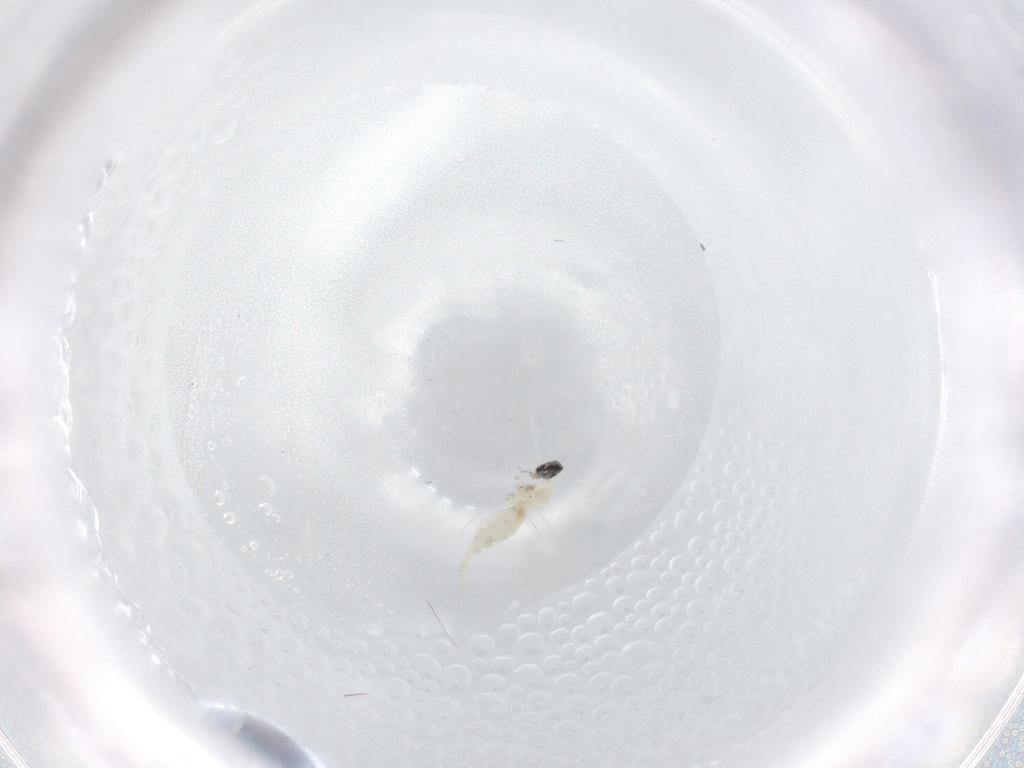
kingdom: Animalia
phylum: Arthropoda
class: Insecta
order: Diptera
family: Cecidomyiidae
